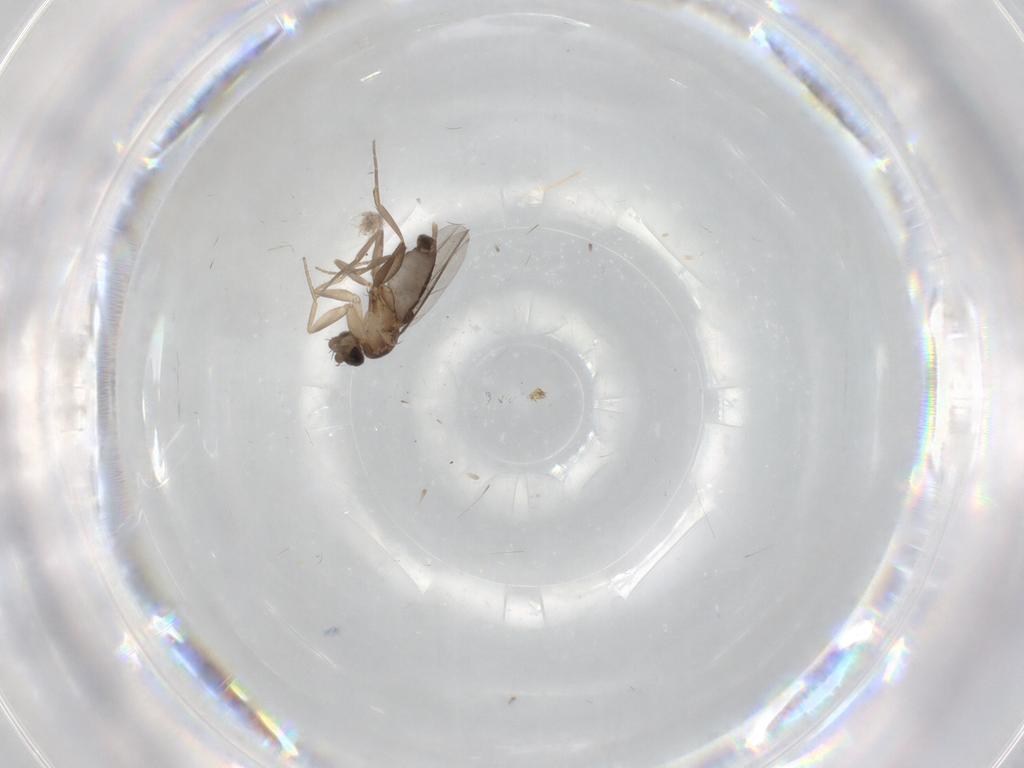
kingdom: Animalia
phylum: Arthropoda
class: Insecta
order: Diptera
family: Phoridae
